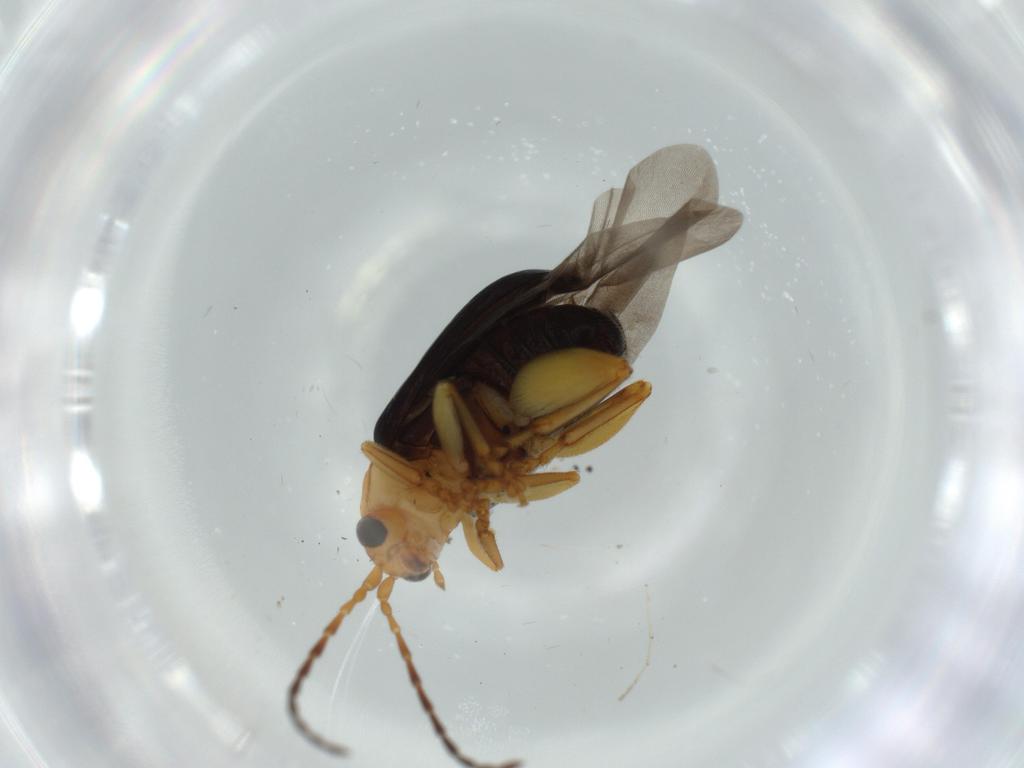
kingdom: Animalia
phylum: Arthropoda
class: Insecta
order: Coleoptera
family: Chrysomelidae
